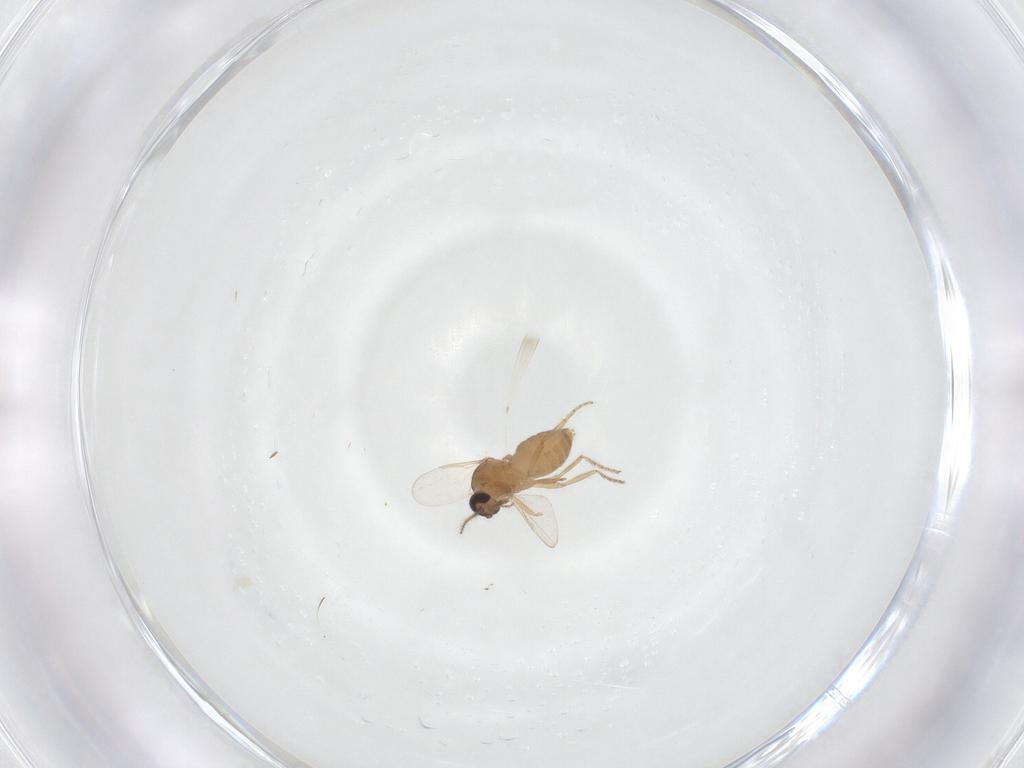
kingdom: Animalia
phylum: Arthropoda
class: Insecta
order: Diptera
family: Ceratopogonidae
